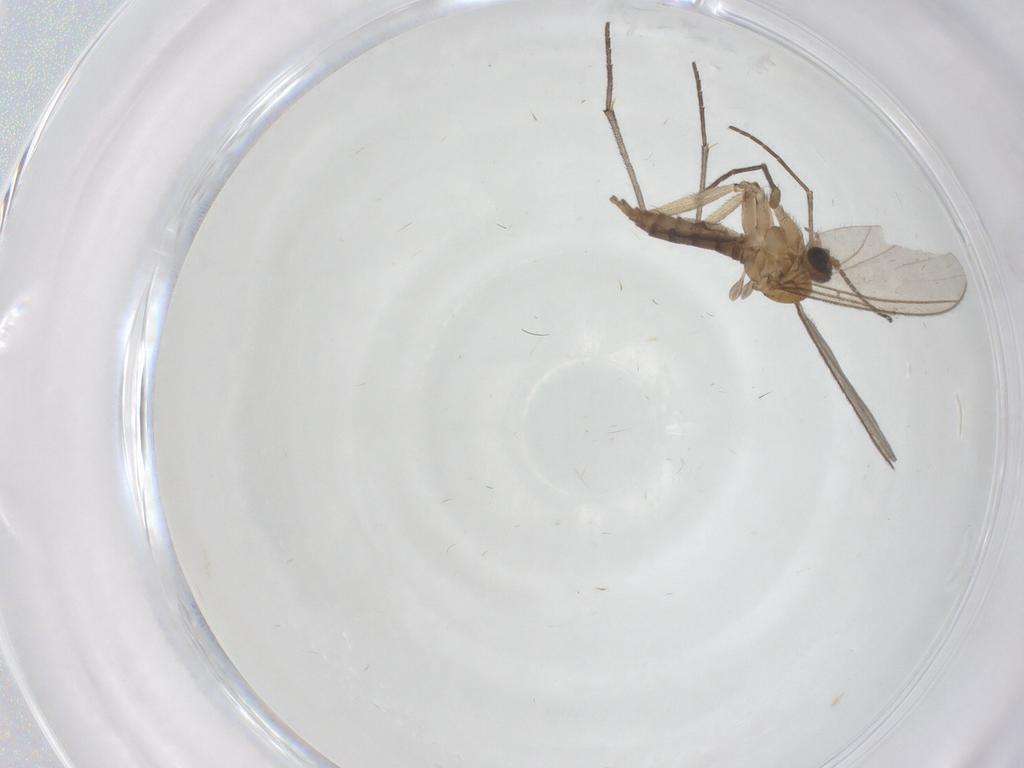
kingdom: Animalia
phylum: Arthropoda
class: Insecta
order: Diptera
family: Sciaridae
